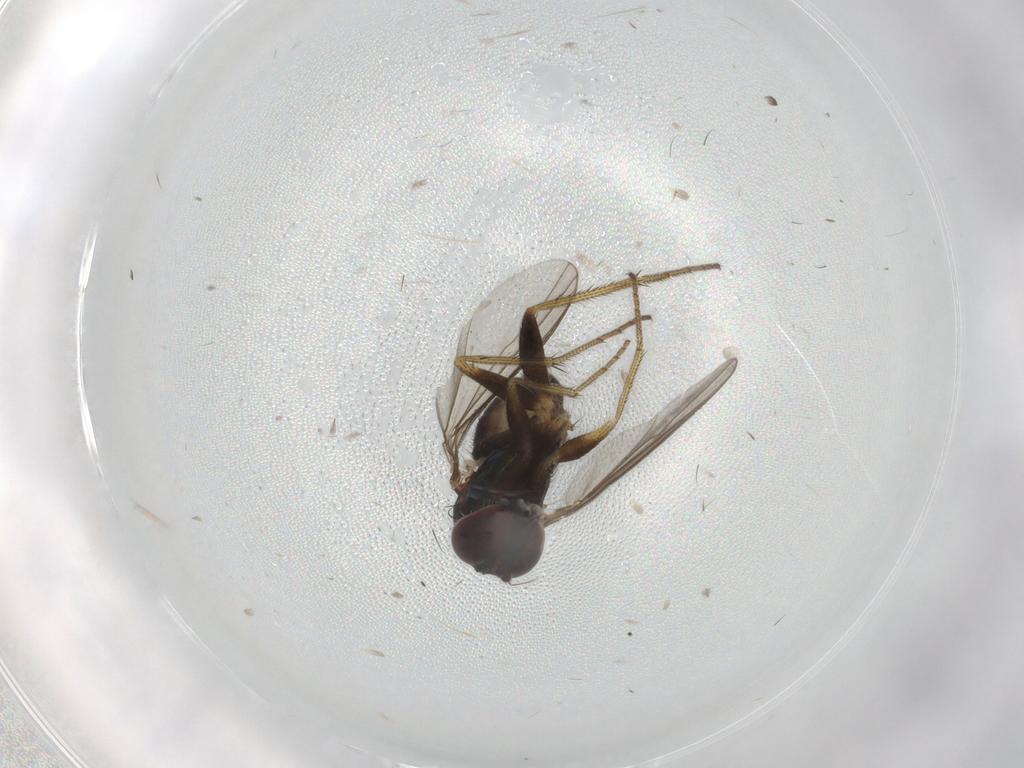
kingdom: Animalia
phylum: Arthropoda
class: Insecta
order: Diptera
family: Dolichopodidae
